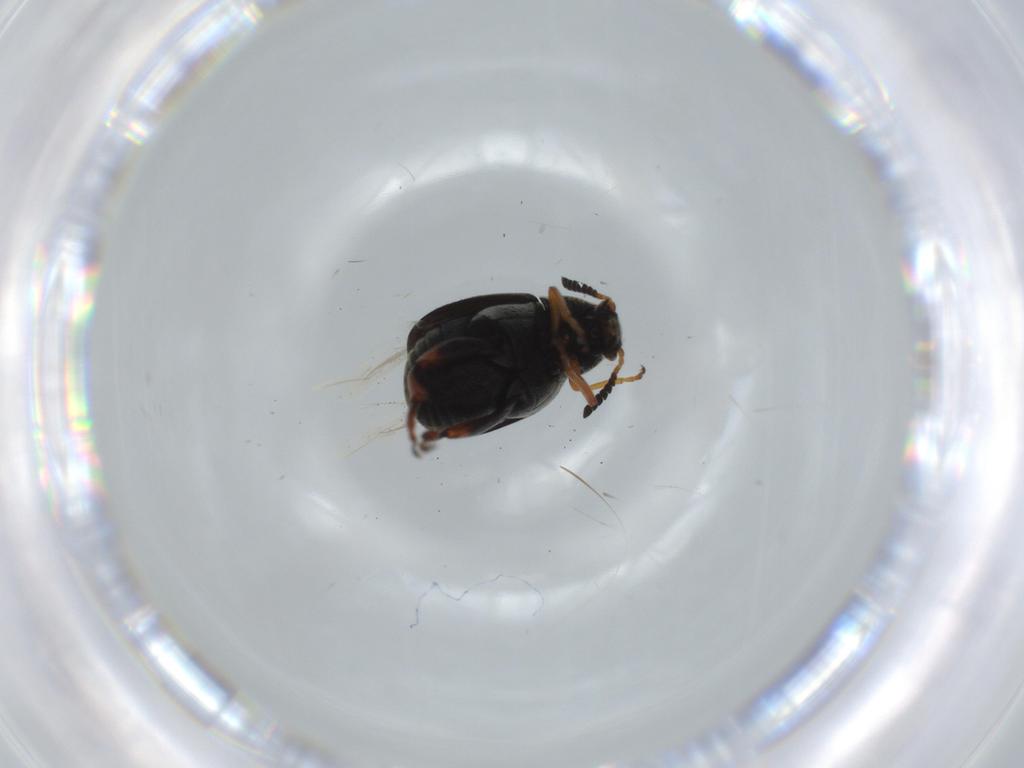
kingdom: Animalia
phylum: Arthropoda
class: Insecta
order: Coleoptera
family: Chrysomelidae
